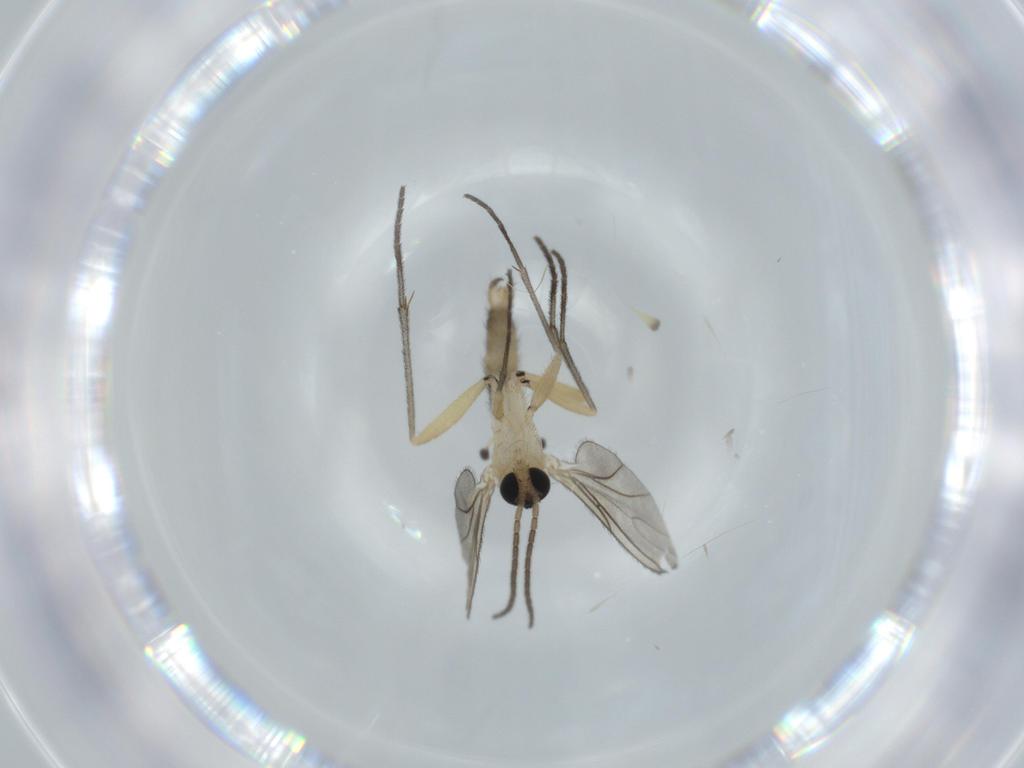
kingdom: Animalia
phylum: Arthropoda
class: Insecta
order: Diptera
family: Sciaridae
